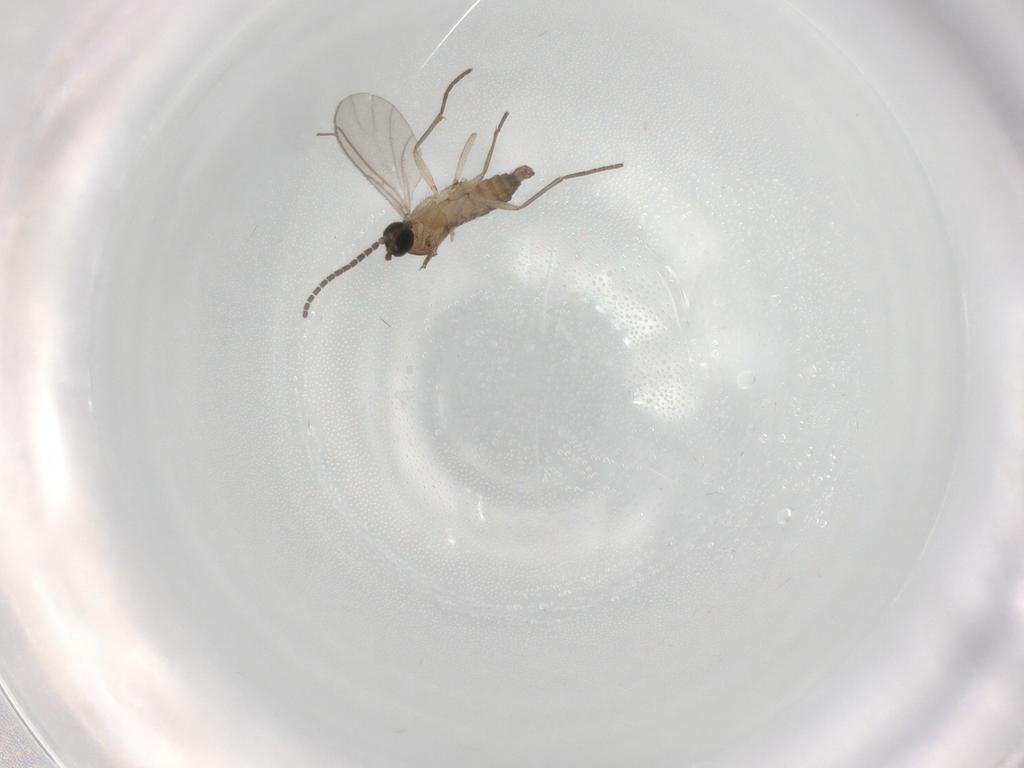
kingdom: Animalia
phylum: Arthropoda
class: Insecta
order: Diptera
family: Sciaridae
